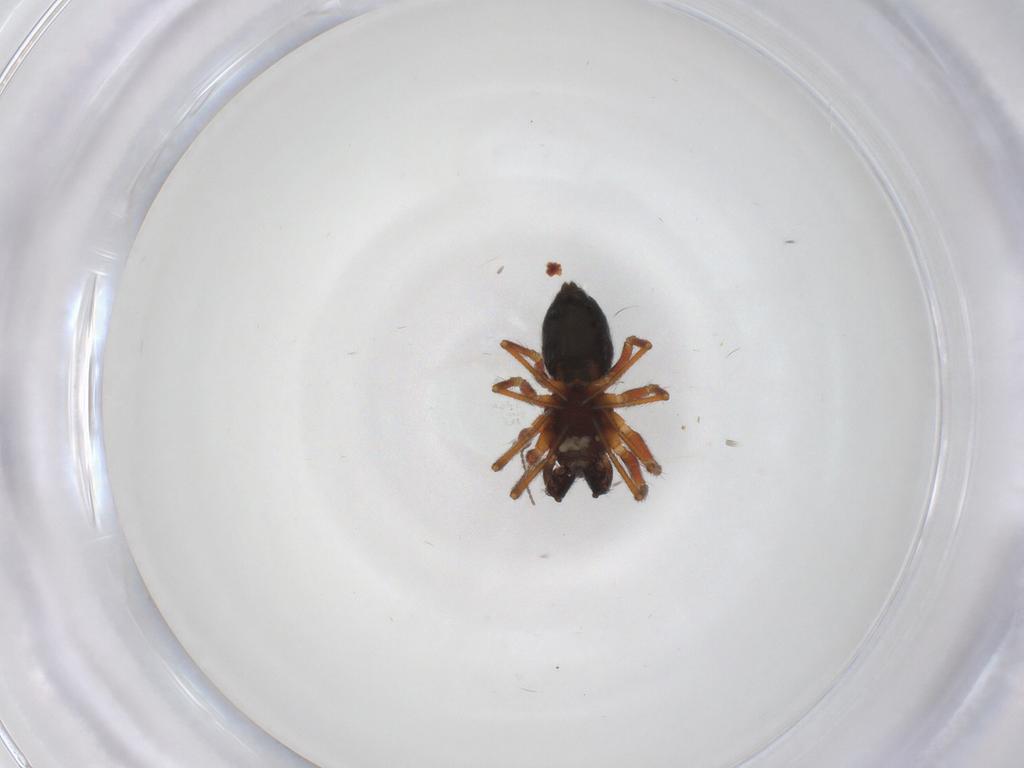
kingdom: Animalia
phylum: Arthropoda
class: Arachnida
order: Araneae
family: Linyphiidae
